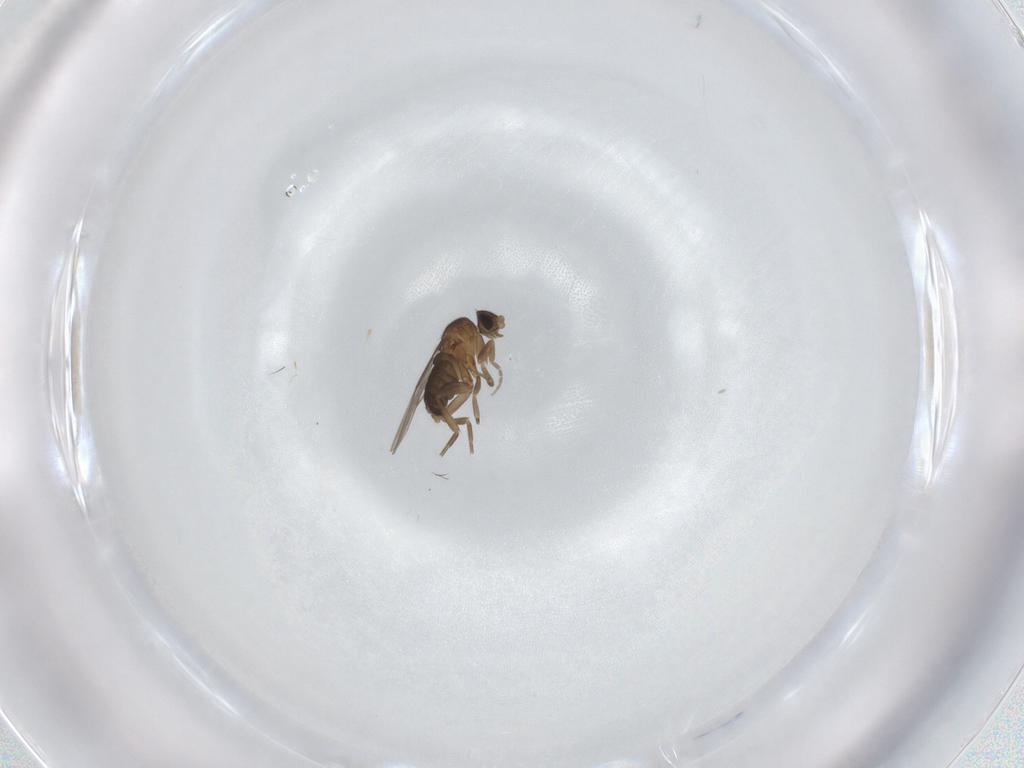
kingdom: Animalia
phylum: Arthropoda
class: Insecta
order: Diptera
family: Phoridae
